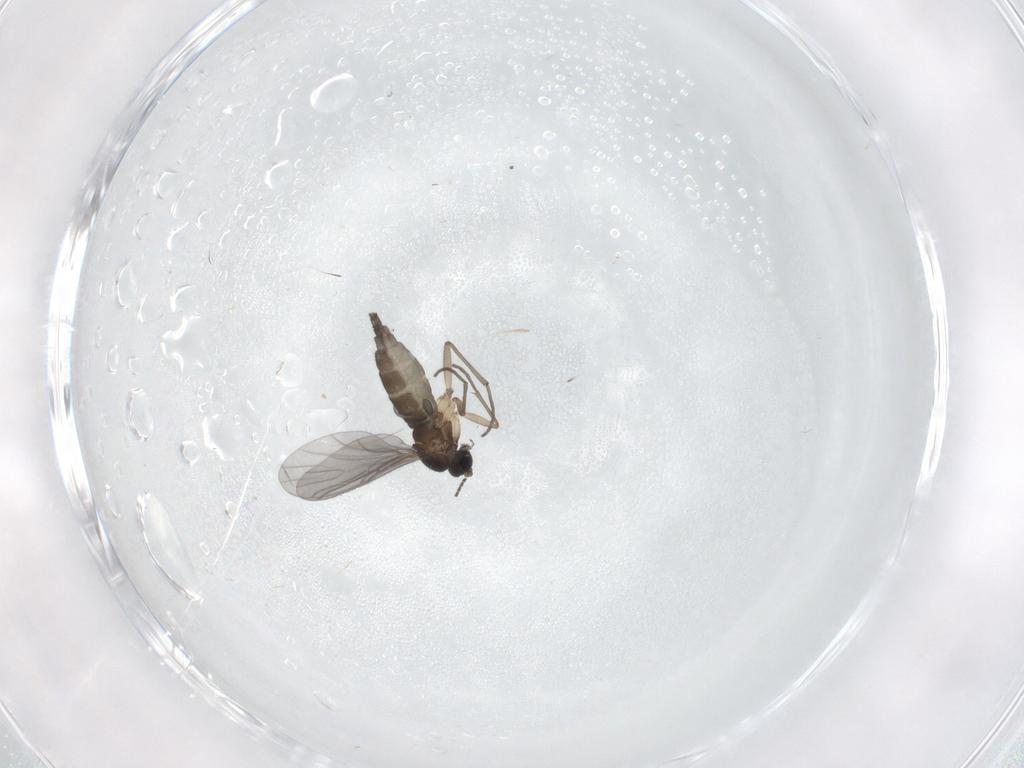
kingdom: Animalia
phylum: Arthropoda
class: Insecta
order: Diptera
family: Sciaridae
